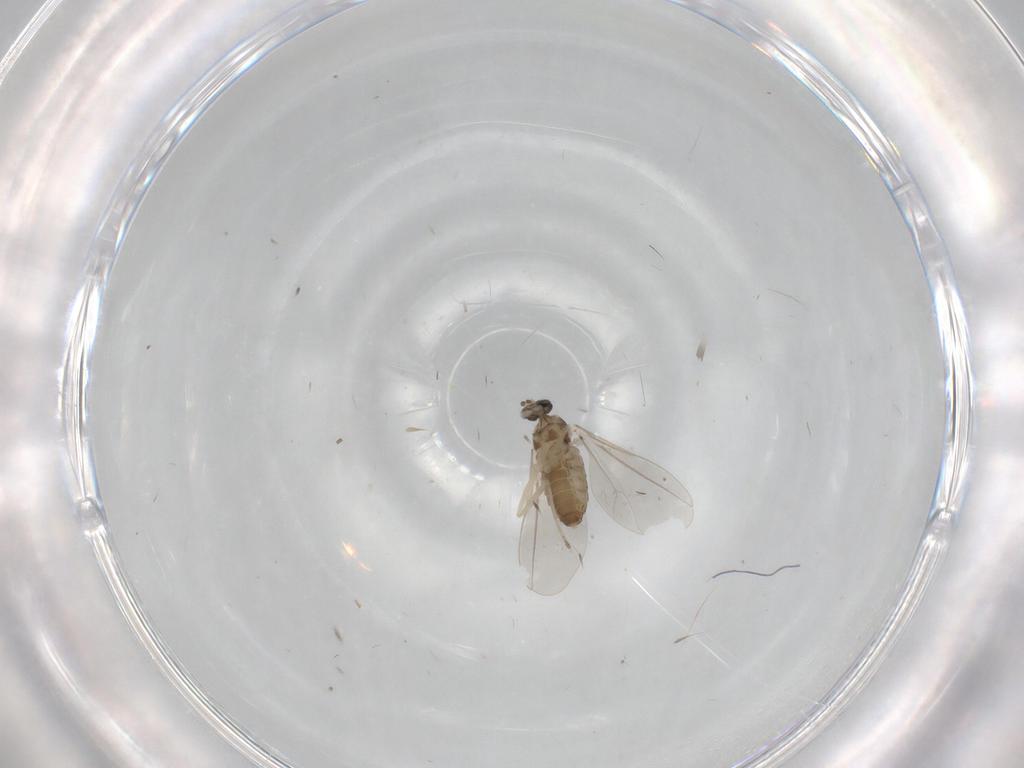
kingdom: Animalia
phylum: Arthropoda
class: Insecta
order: Diptera
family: Cecidomyiidae
